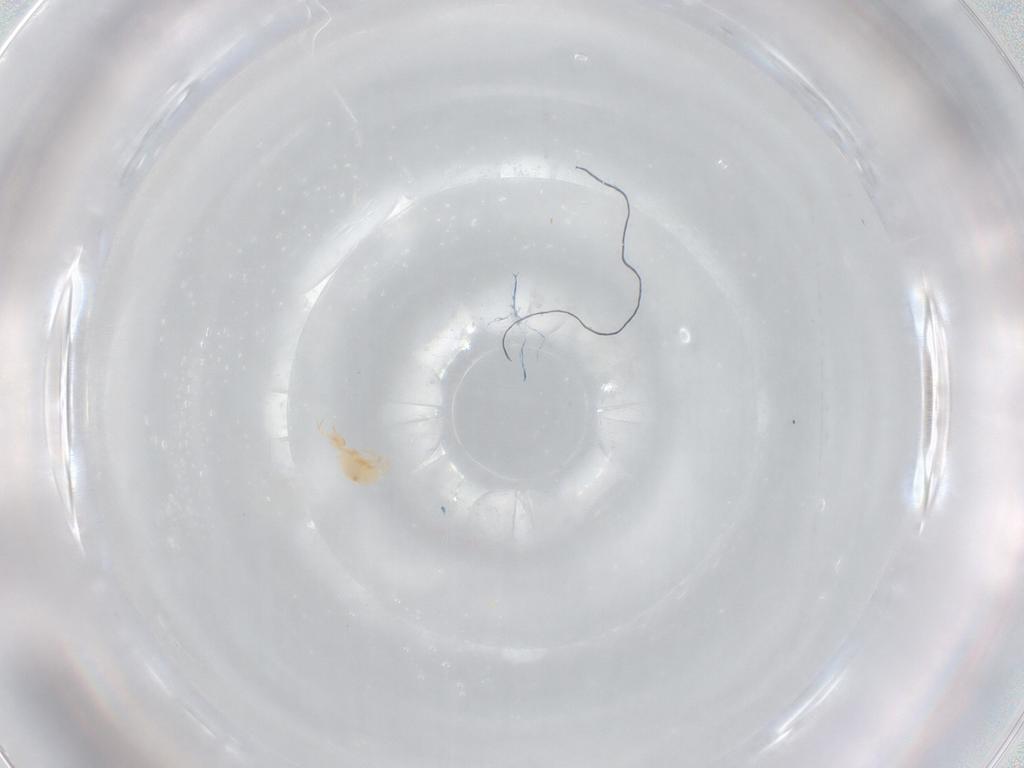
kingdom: Animalia
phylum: Arthropoda
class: Arachnida
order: Trombidiformes
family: Cunaxidae
